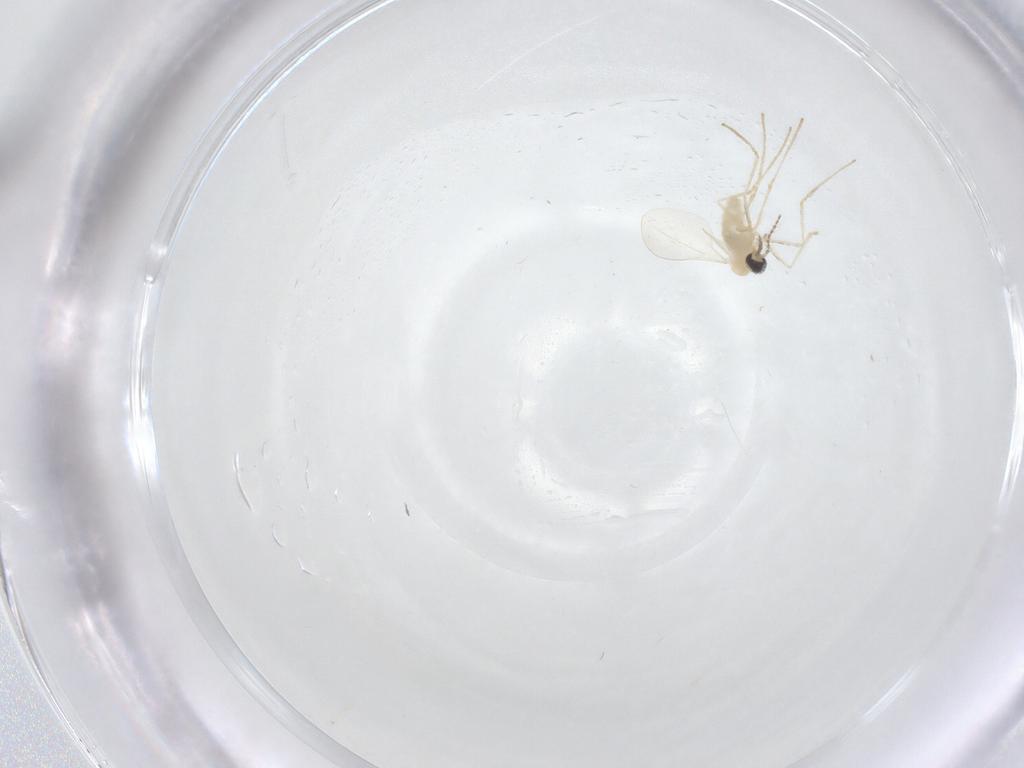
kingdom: Animalia
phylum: Arthropoda
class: Insecta
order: Diptera
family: Cecidomyiidae
